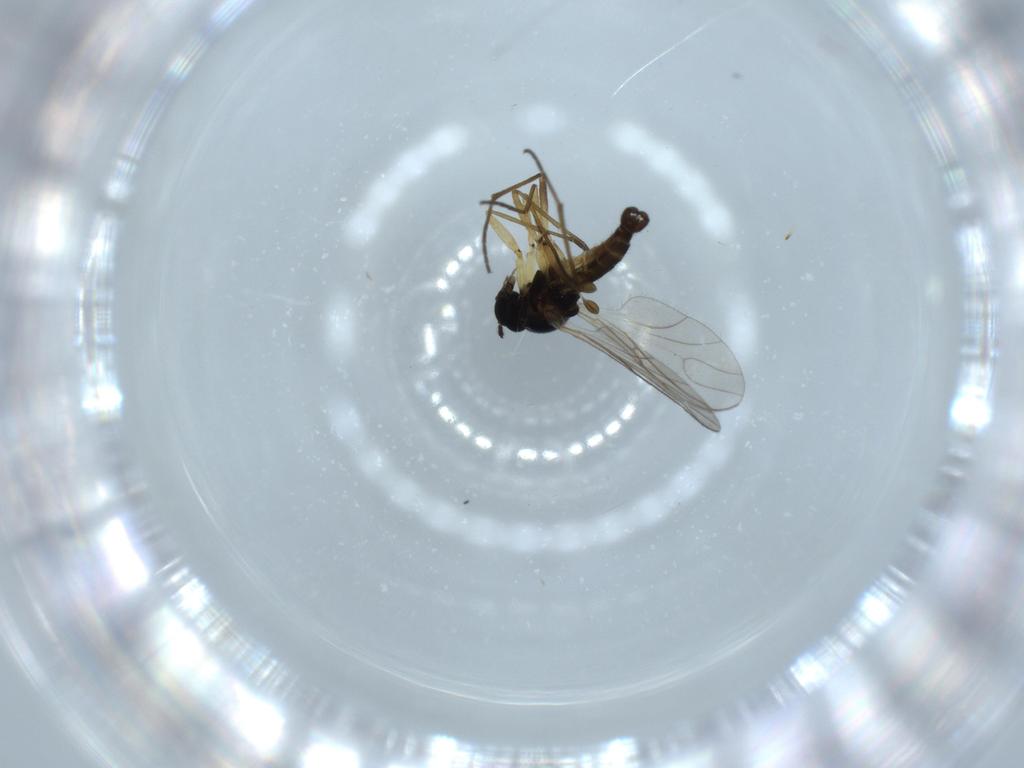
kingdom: Animalia
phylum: Arthropoda
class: Insecta
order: Diptera
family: Sciaridae
